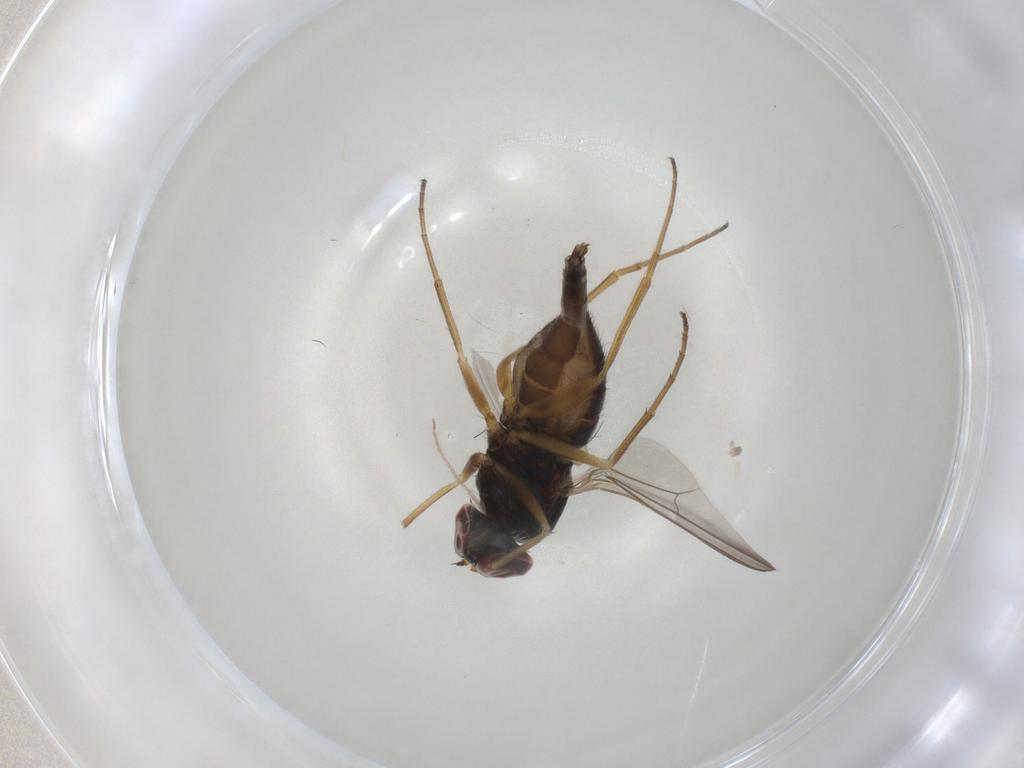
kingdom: Animalia
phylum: Arthropoda
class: Insecta
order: Diptera
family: Dolichopodidae
